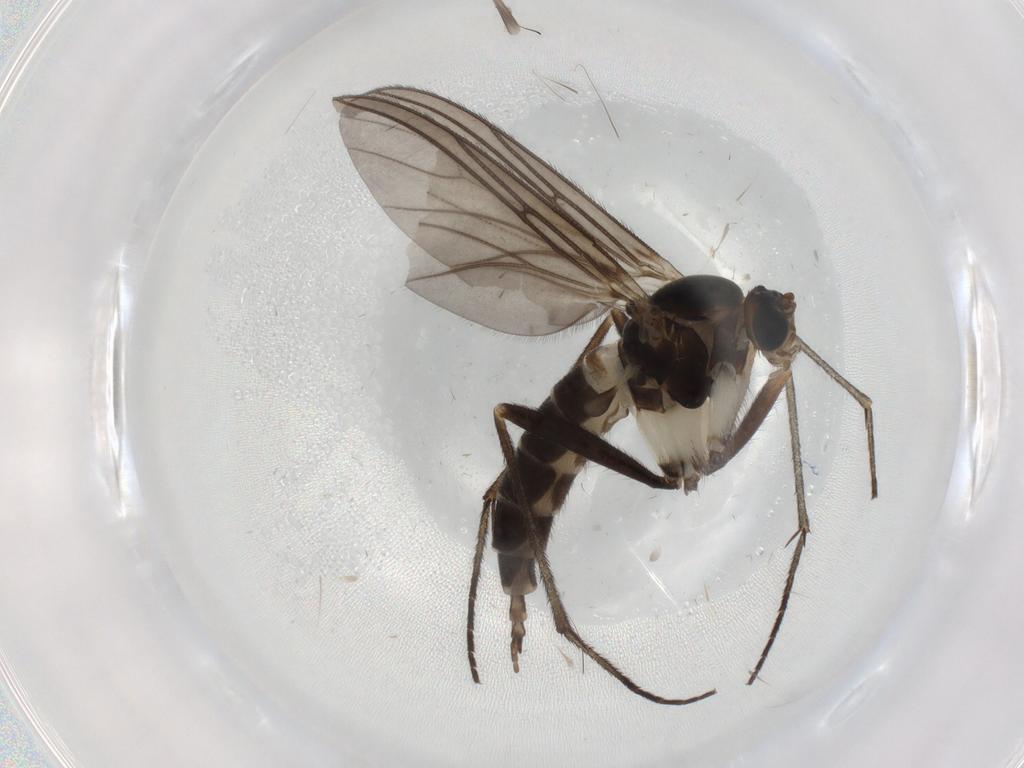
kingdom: Animalia
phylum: Arthropoda
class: Insecta
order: Diptera
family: Sciaridae
